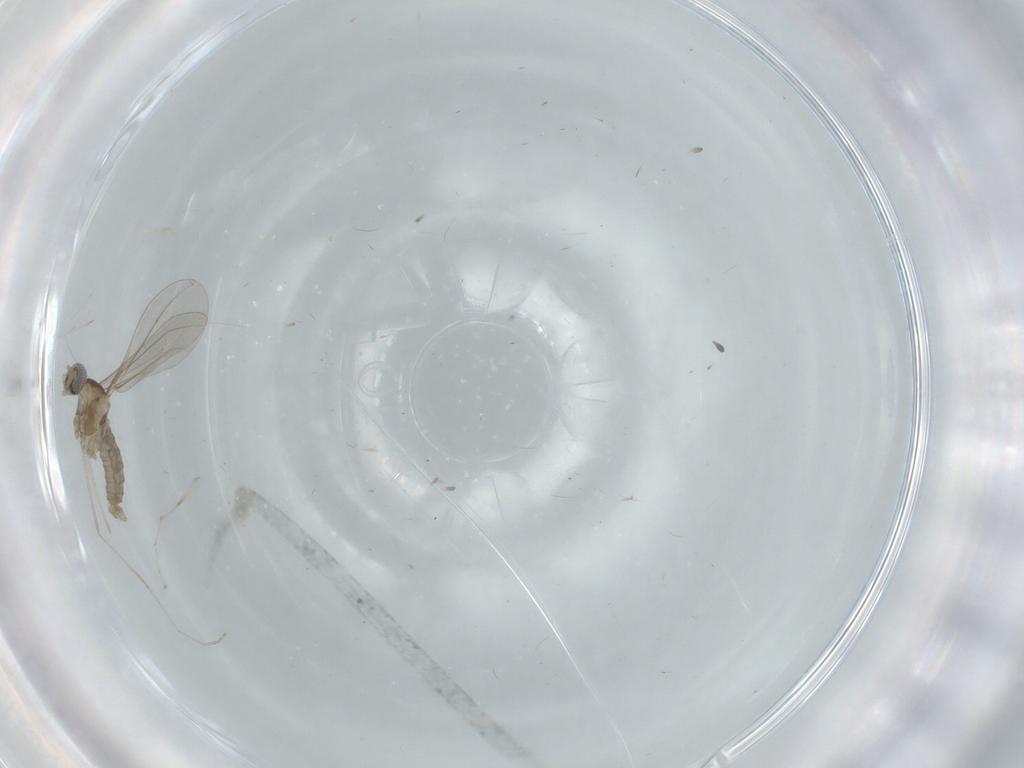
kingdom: Animalia
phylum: Arthropoda
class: Insecta
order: Diptera
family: Cecidomyiidae
